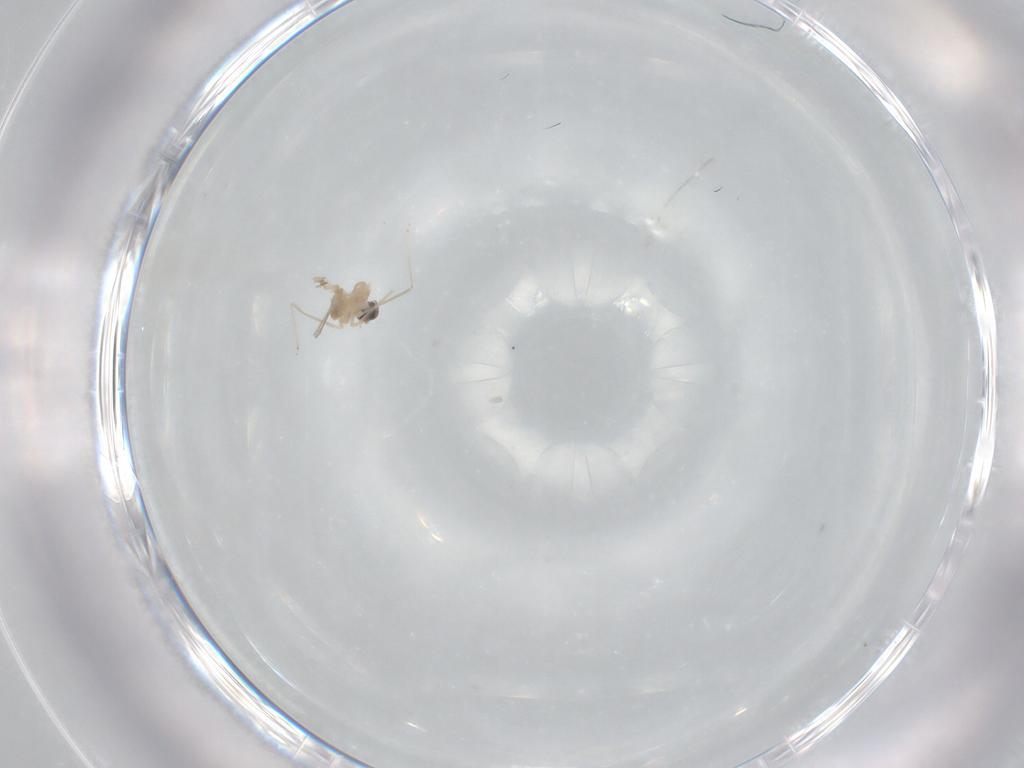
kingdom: Animalia
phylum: Arthropoda
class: Insecta
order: Diptera
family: Cecidomyiidae
